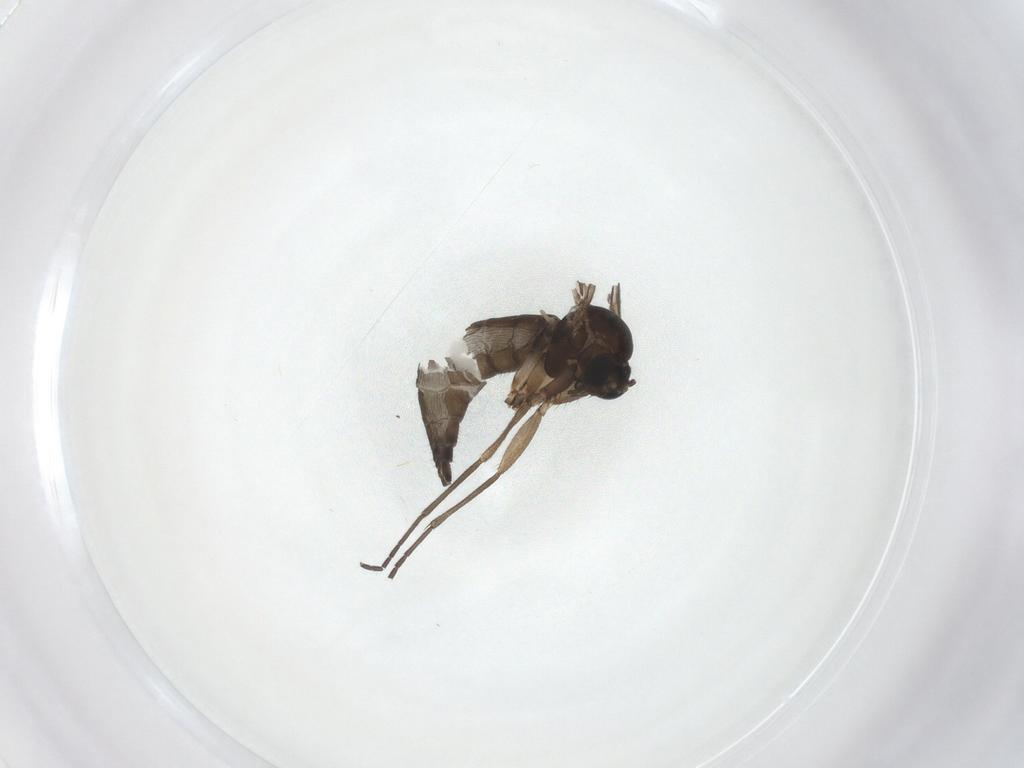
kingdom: Animalia
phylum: Arthropoda
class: Insecta
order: Diptera
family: Sciaridae
